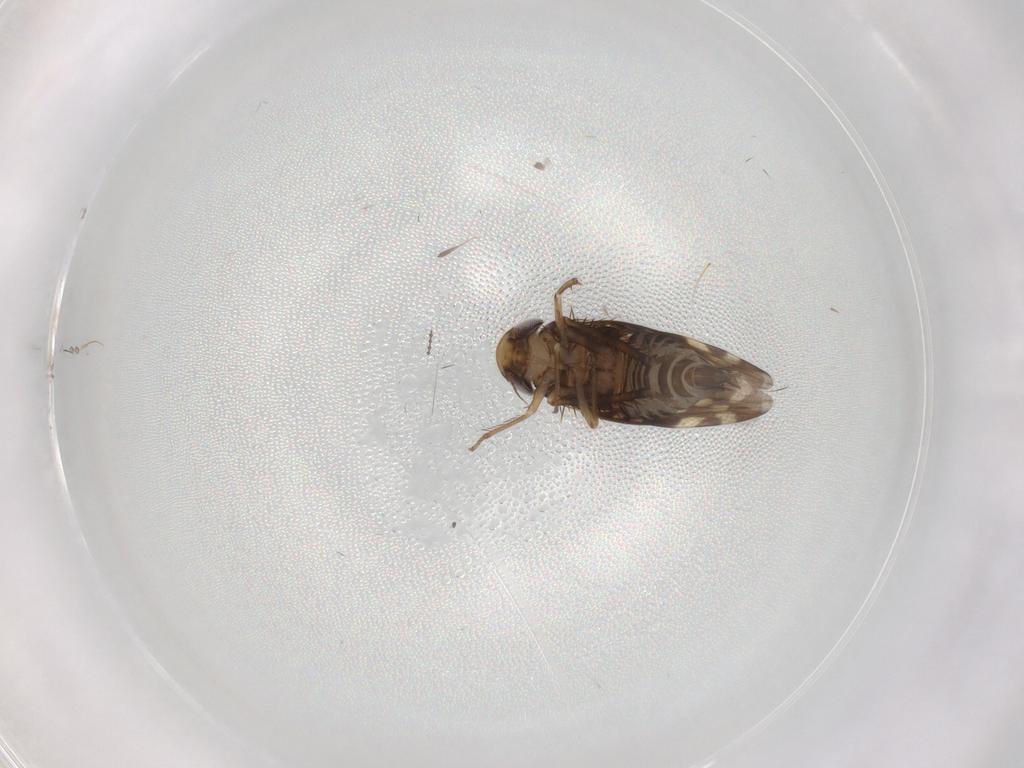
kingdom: Animalia
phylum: Arthropoda
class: Insecta
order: Hemiptera
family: Cicadellidae
